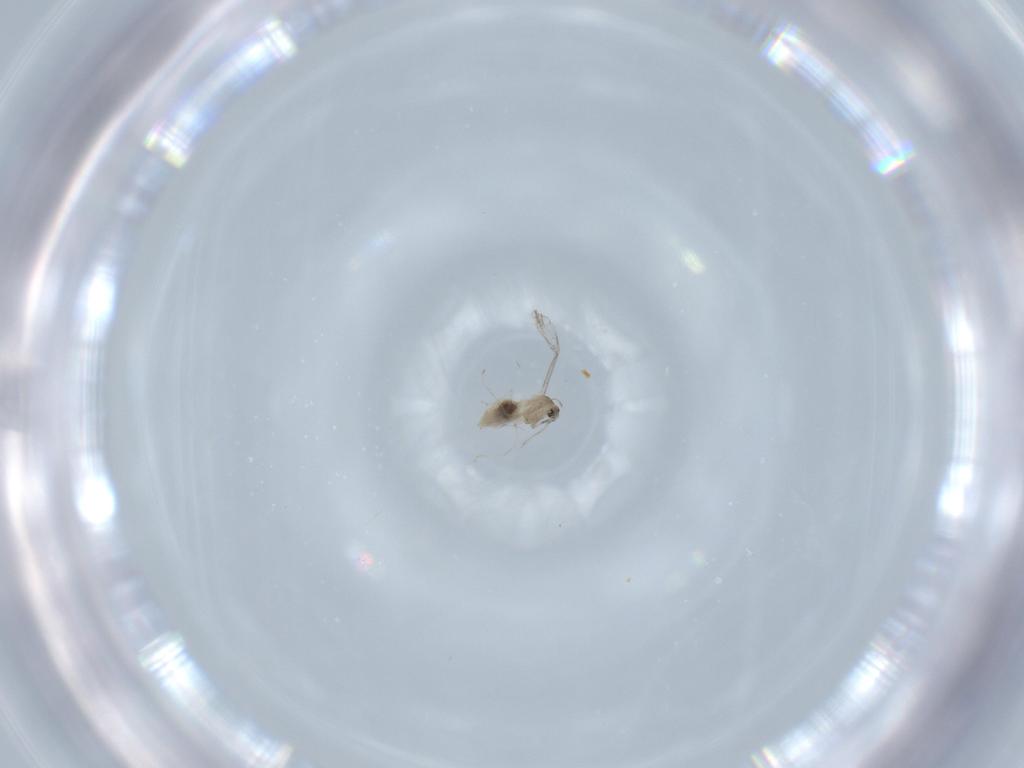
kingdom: Animalia
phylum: Arthropoda
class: Insecta
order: Diptera
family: Cecidomyiidae
